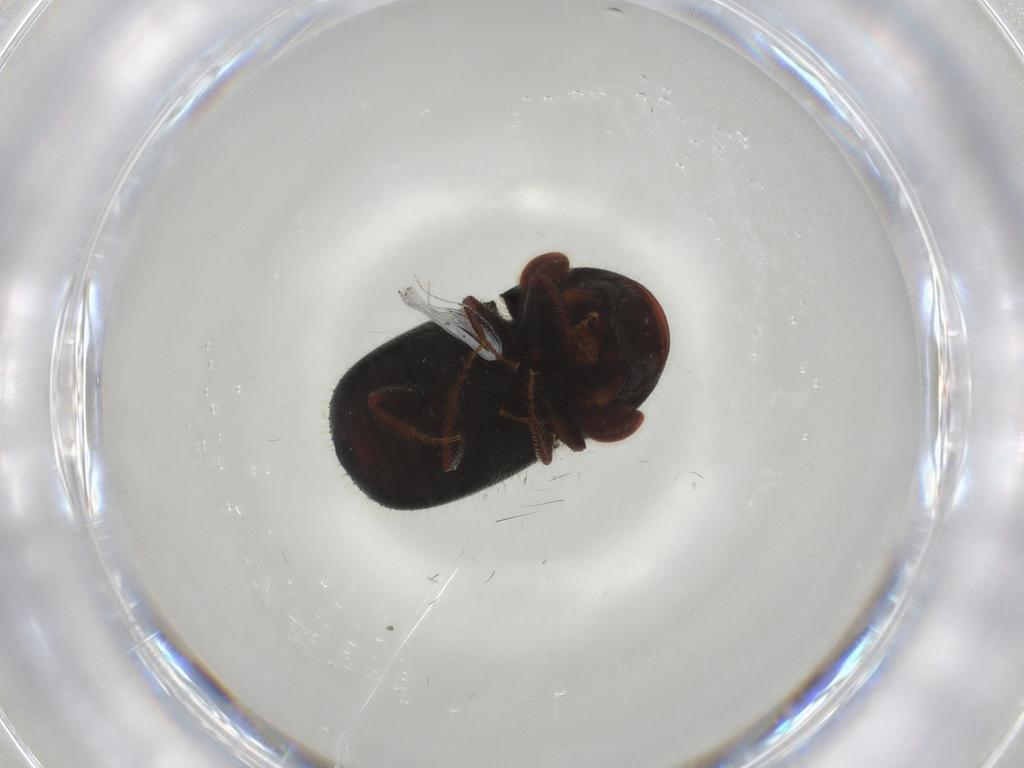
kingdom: Animalia
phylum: Arthropoda
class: Insecta
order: Coleoptera
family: Curculionidae
